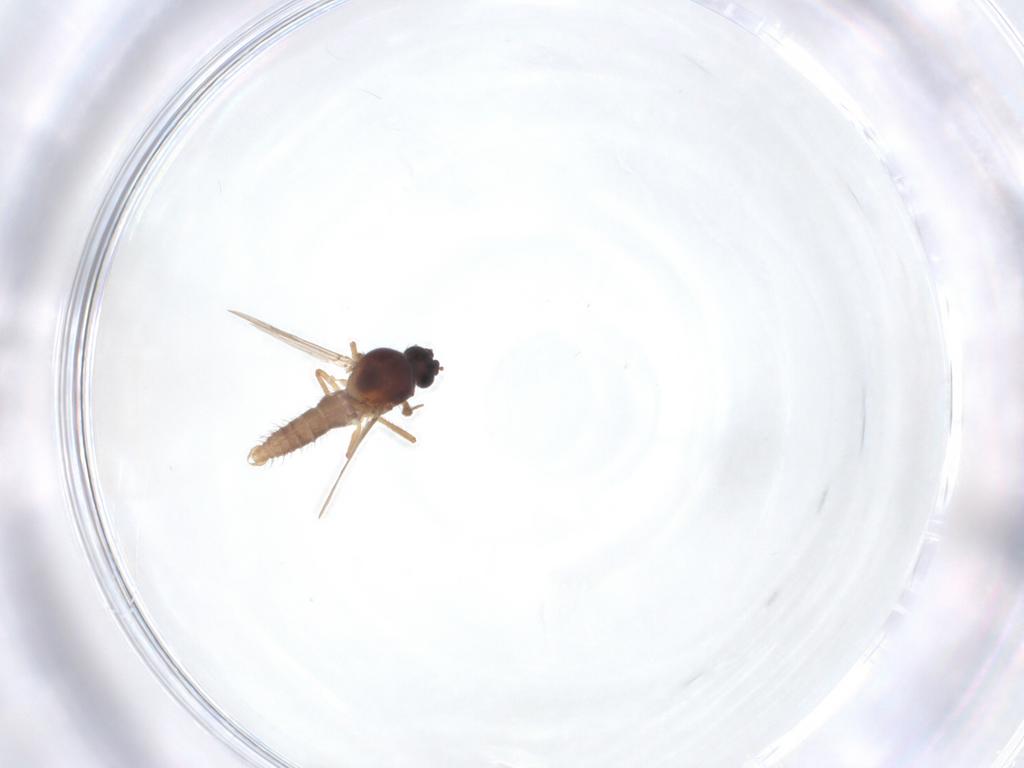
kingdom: Animalia
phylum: Arthropoda
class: Insecta
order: Diptera
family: Ceratopogonidae
